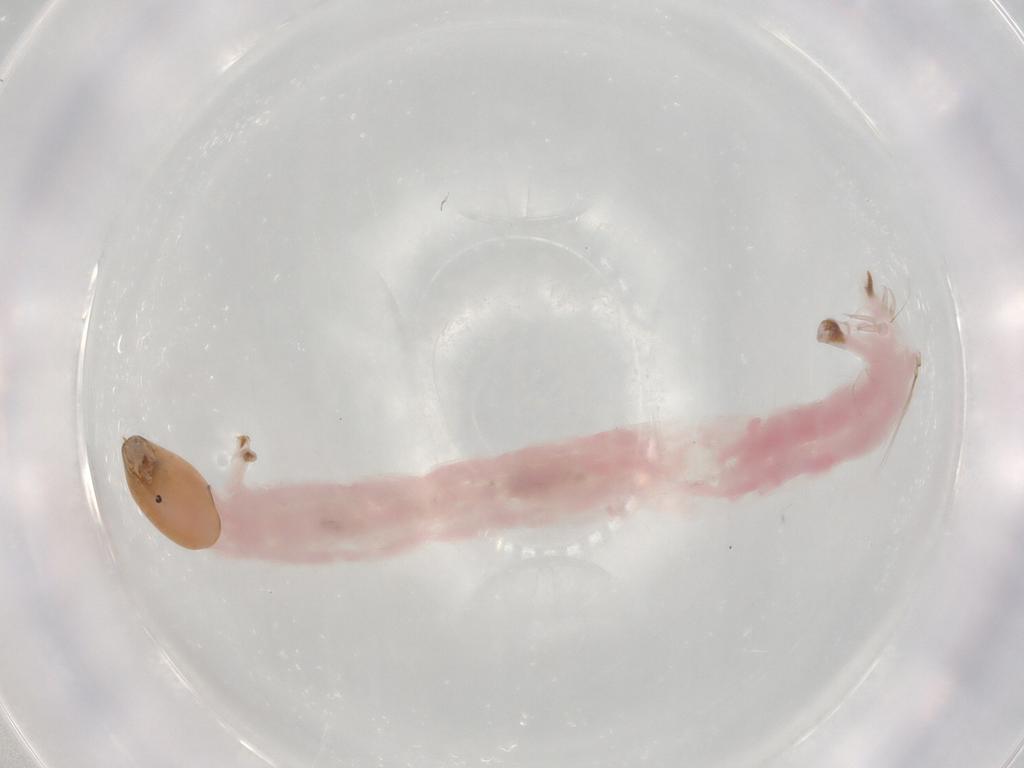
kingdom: Animalia
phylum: Arthropoda
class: Insecta
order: Diptera
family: Chironomidae
